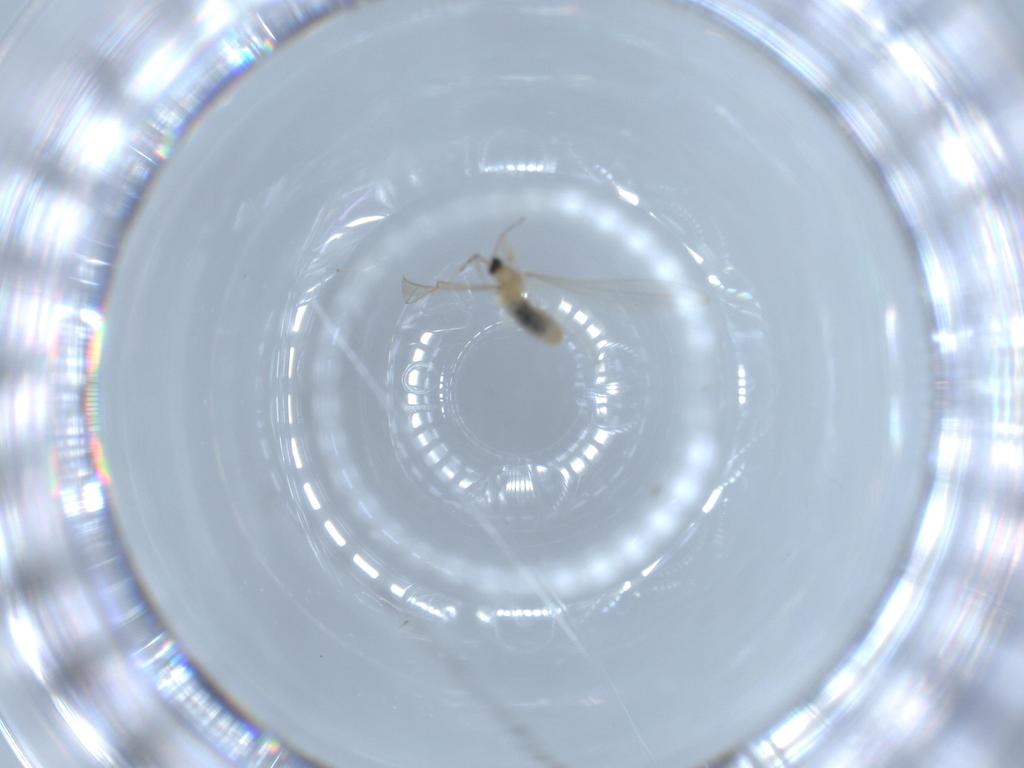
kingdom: Animalia
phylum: Arthropoda
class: Insecta
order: Diptera
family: Cecidomyiidae
